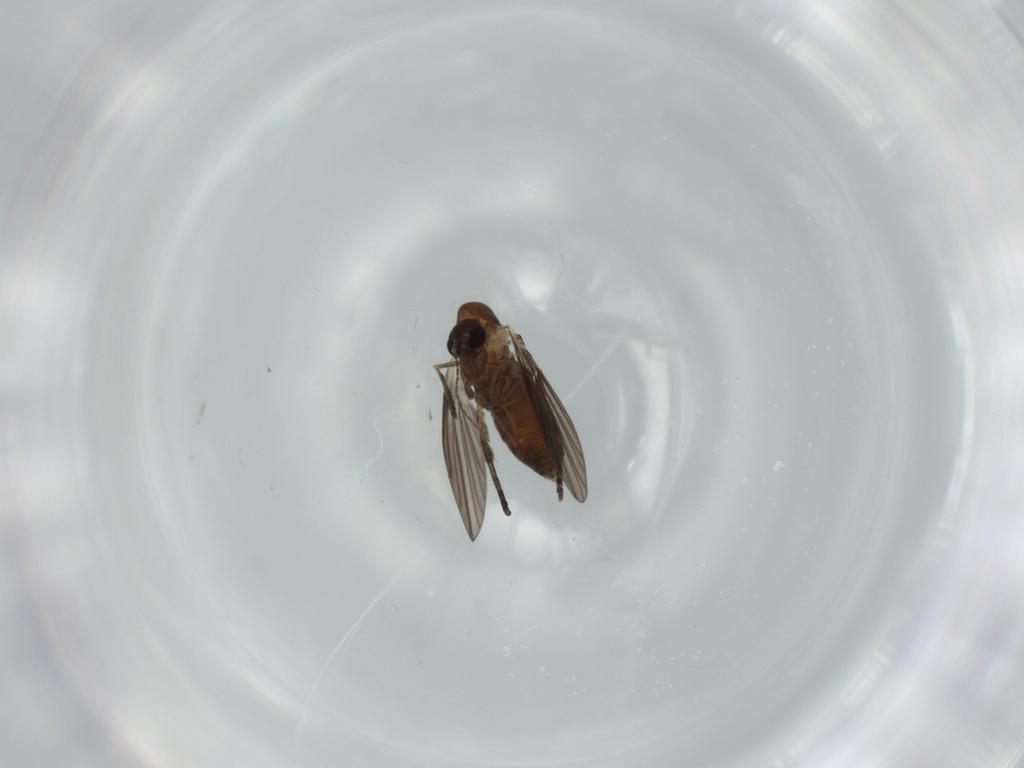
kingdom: Animalia
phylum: Arthropoda
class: Insecta
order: Diptera
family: Psychodidae
